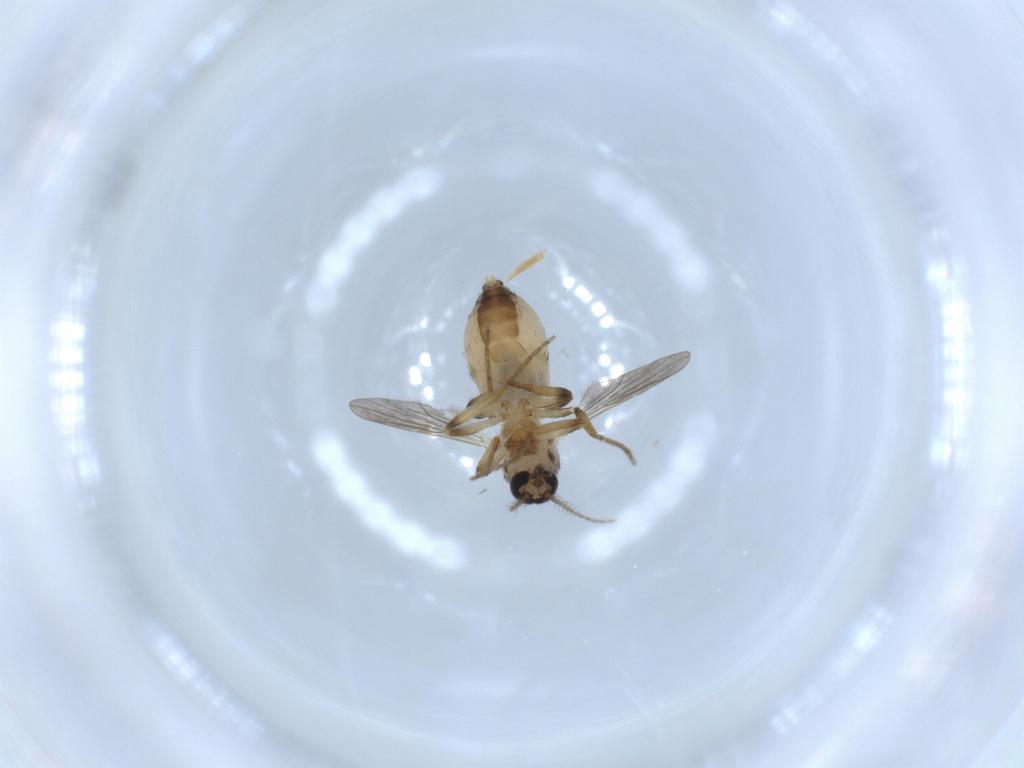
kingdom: Animalia
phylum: Arthropoda
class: Insecta
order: Diptera
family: Ceratopogonidae
